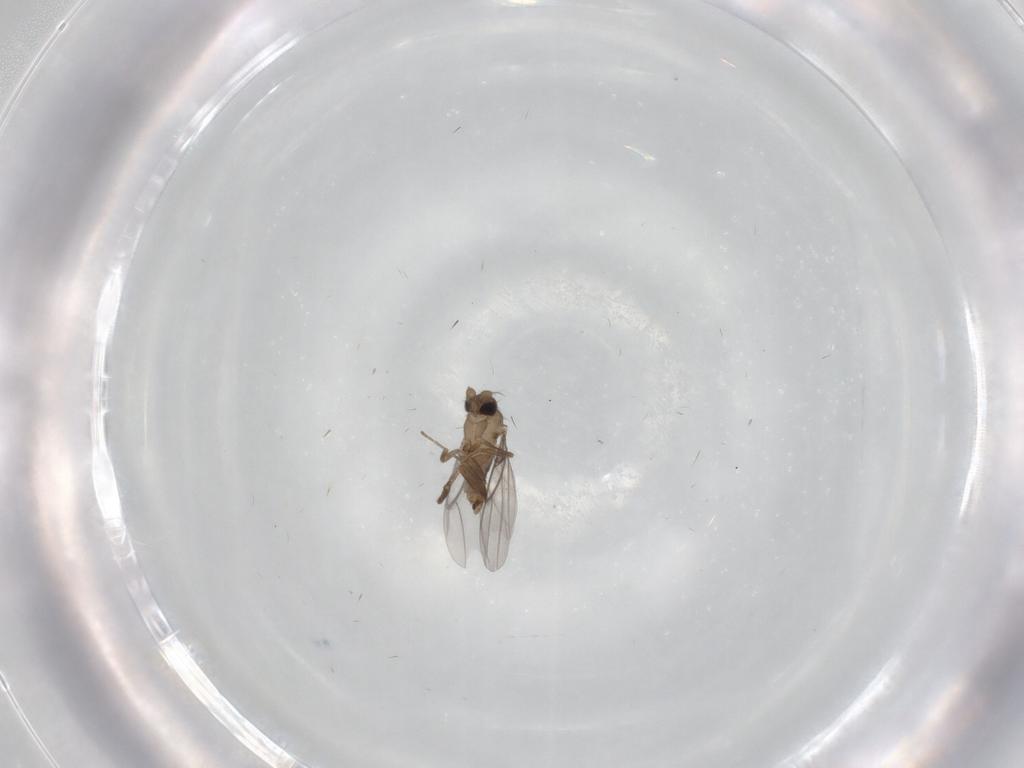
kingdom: Animalia
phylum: Arthropoda
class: Insecta
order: Diptera
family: Phoridae
